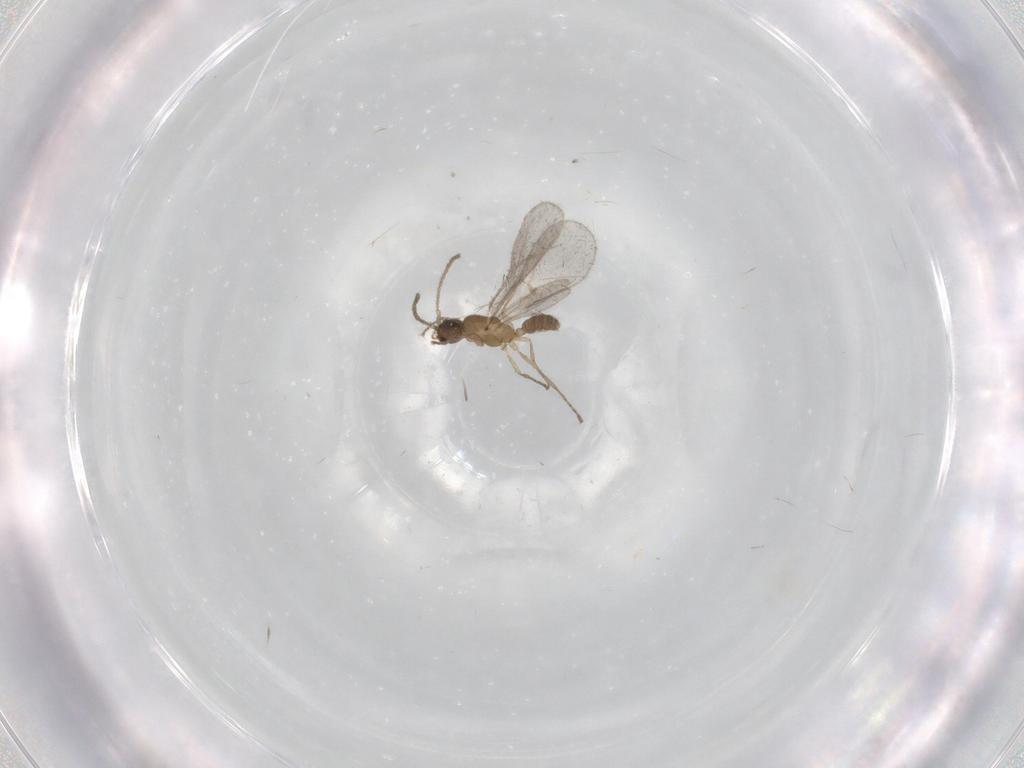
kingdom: Animalia
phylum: Arthropoda
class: Insecta
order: Hymenoptera
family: Formicidae
